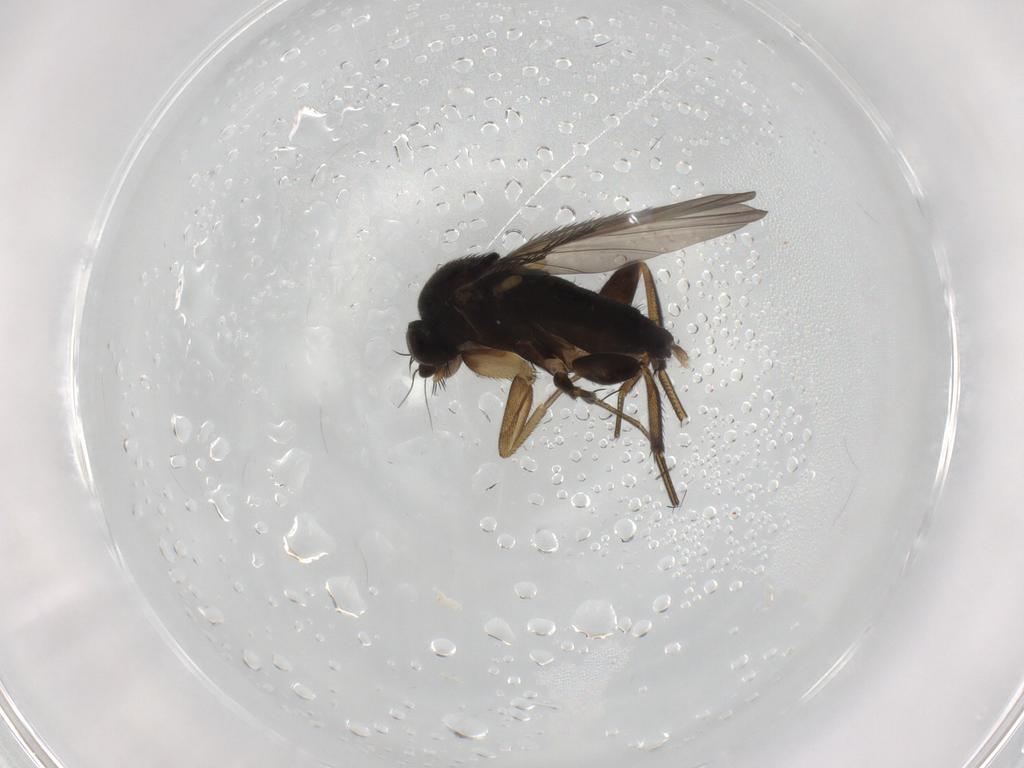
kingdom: Animalia
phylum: Arthropoda
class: Insecta
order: Diptera
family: Phoridae
